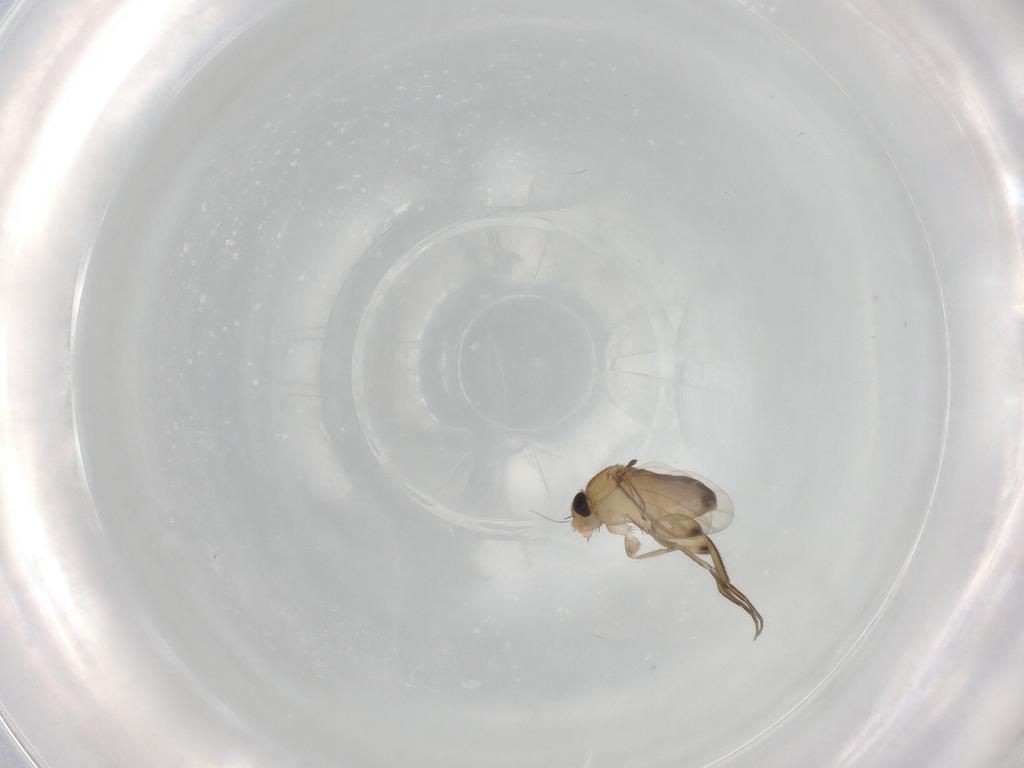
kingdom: Animalia
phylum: Arthropoda
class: Insecta
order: Diptera
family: Phoridae
